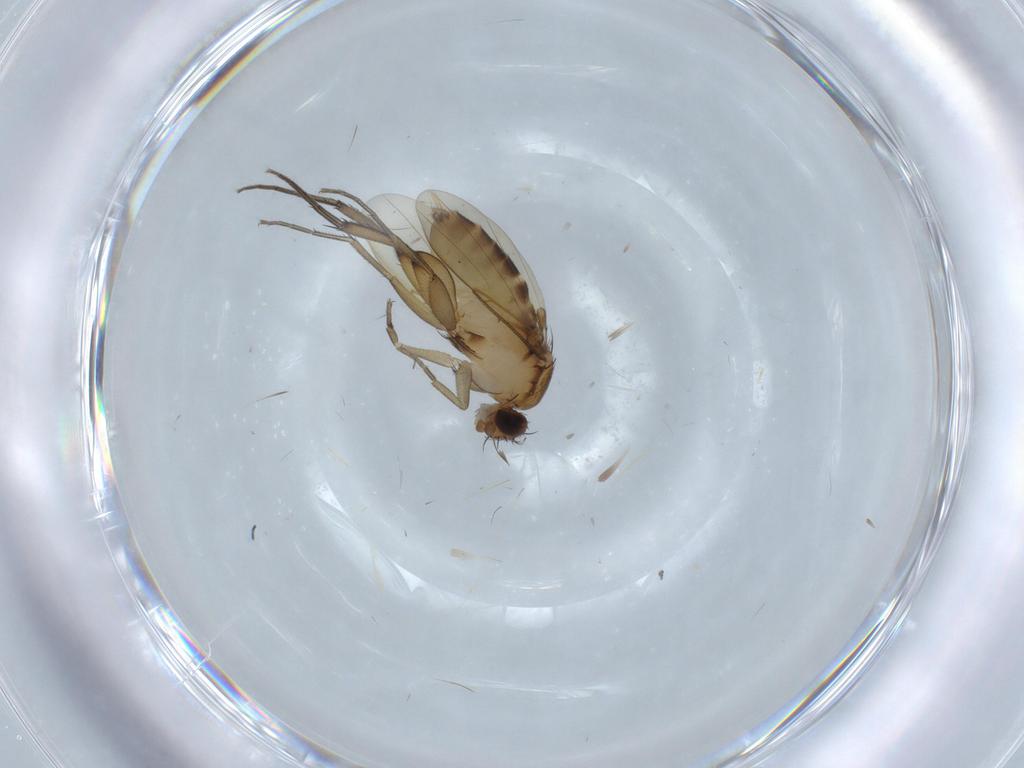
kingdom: Animalia
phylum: Arthropoda
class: Insecta
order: Diptera
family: Phoridae
